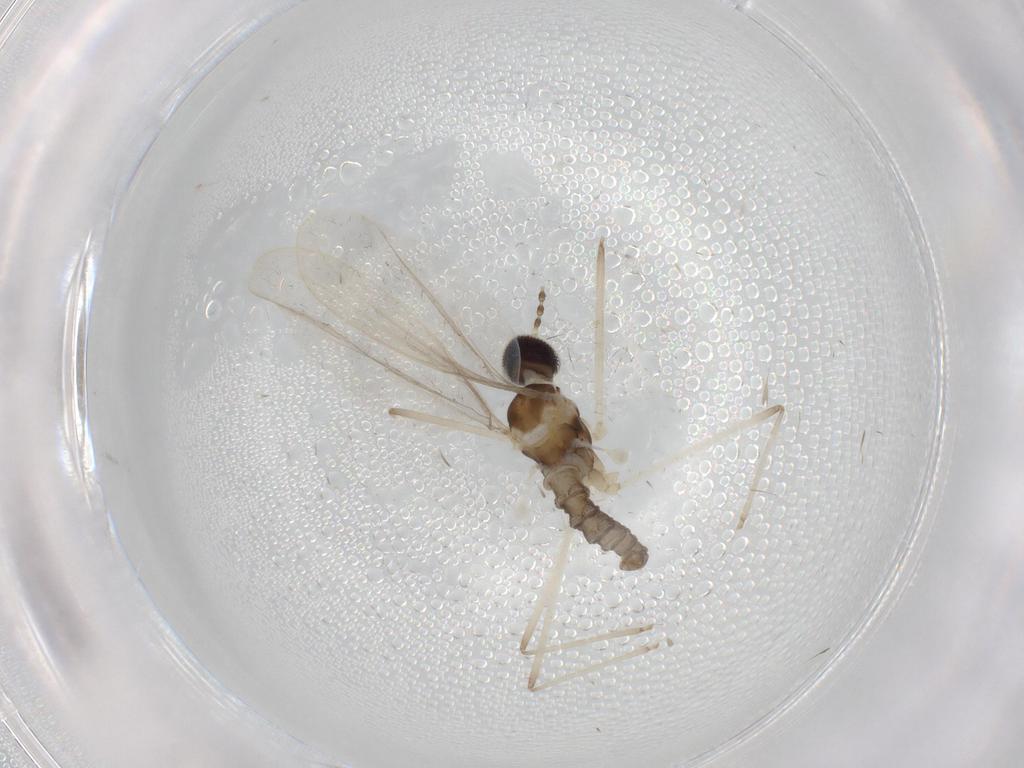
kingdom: Animalia
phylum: Arthropoda
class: Insecta
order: Diptera
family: Sciaridae
